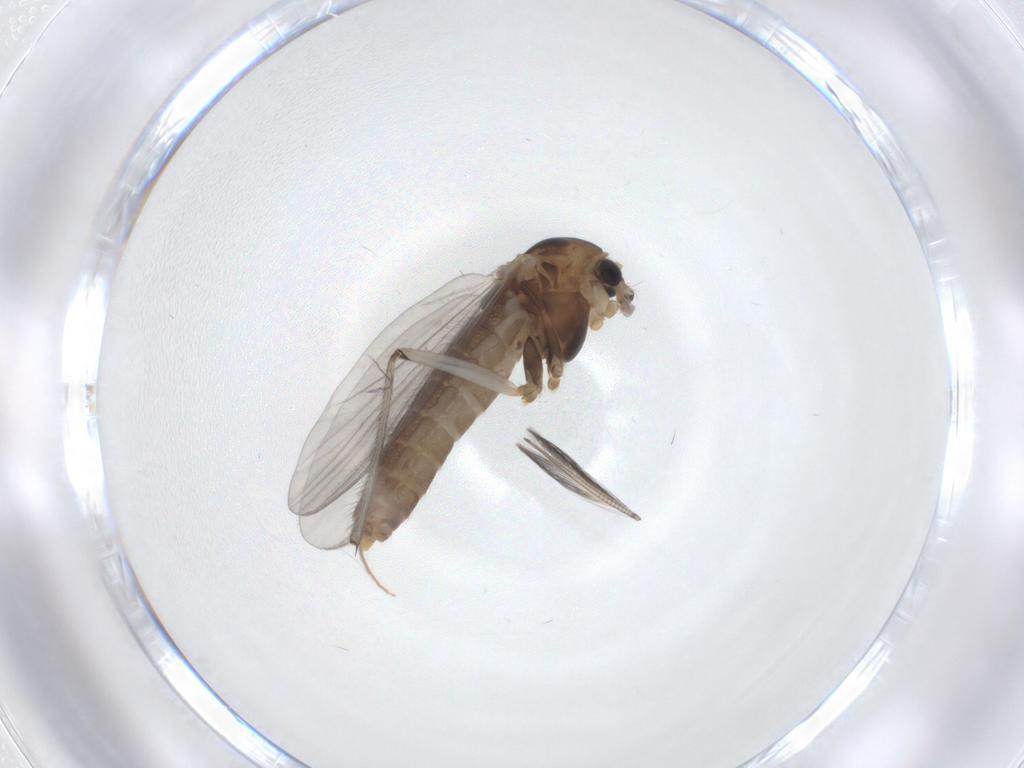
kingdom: Animalia
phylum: Arthropoda
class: Insecta
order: Diptera
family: Chironomidae
